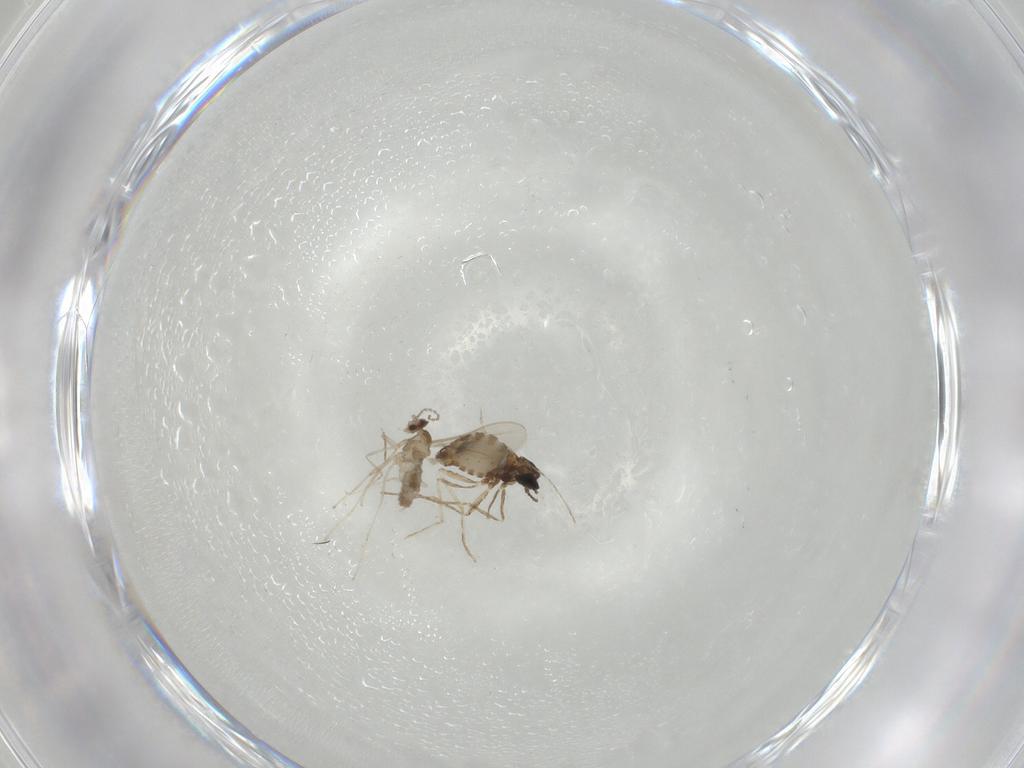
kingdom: Animalia
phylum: Arthropoda
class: Insecta
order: Diptera
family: Cecidomyiidae
